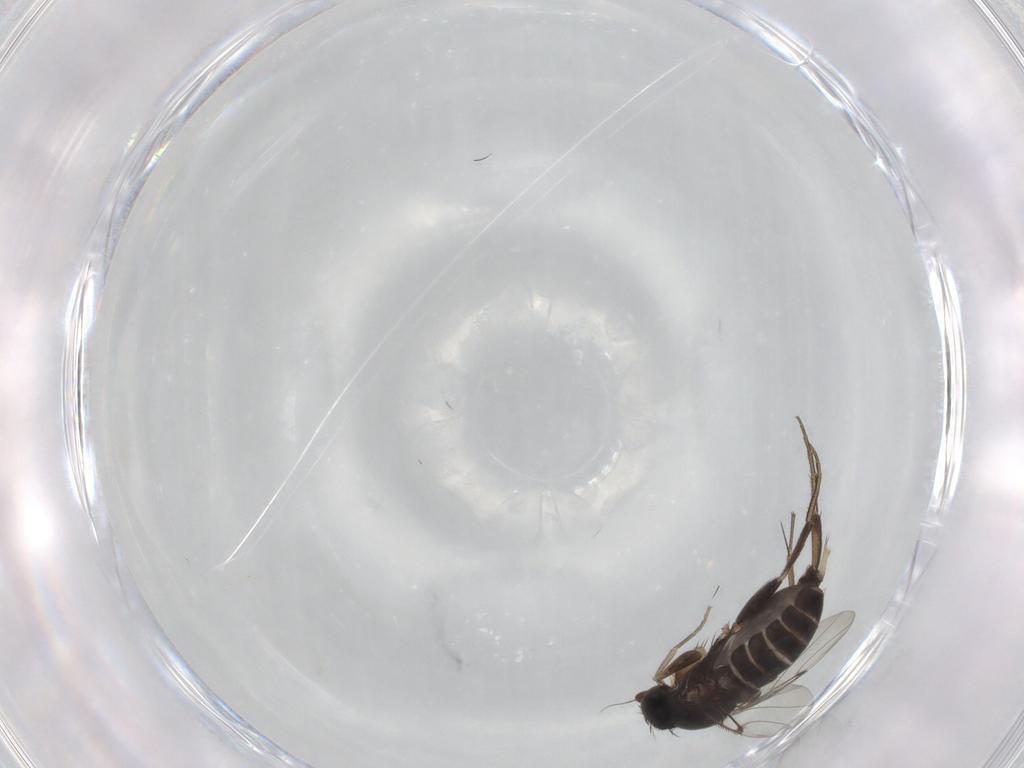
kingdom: Animalia
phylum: Arthropoda
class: Insecta
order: Diptera
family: Phoridae
